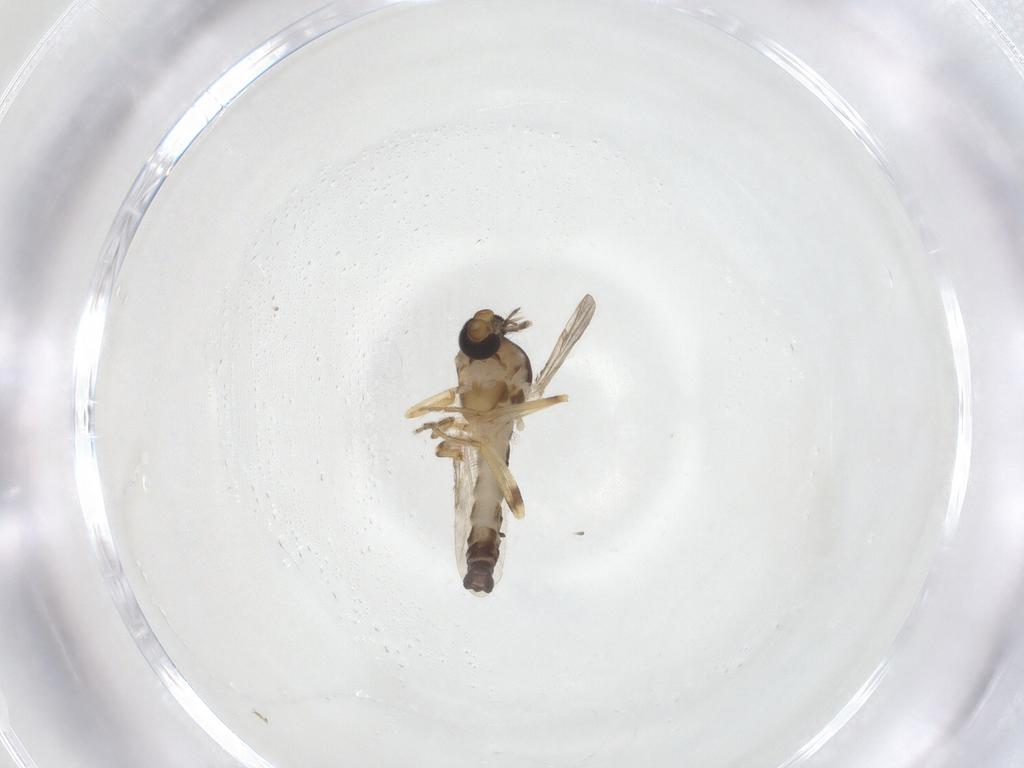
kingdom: Animalia
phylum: Arthropoda
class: Insecta
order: Diptera
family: Ceratopogonidae
